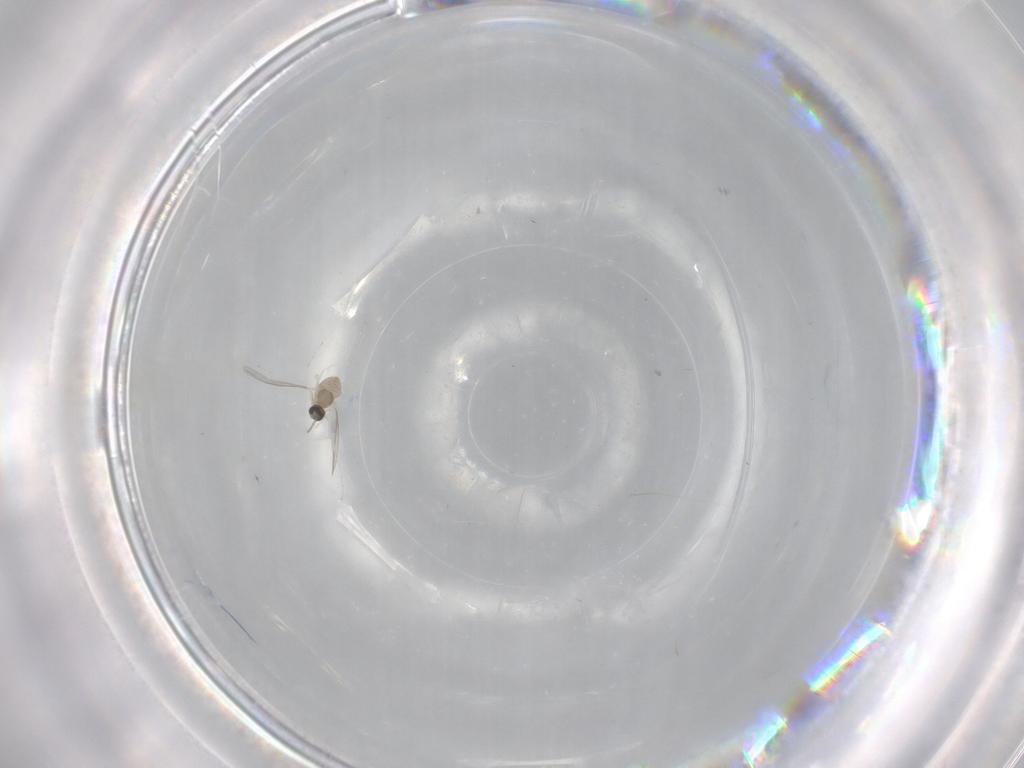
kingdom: Animalia
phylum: Arthropoda
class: Insecta
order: Diptera
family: Cecidomyiidae
